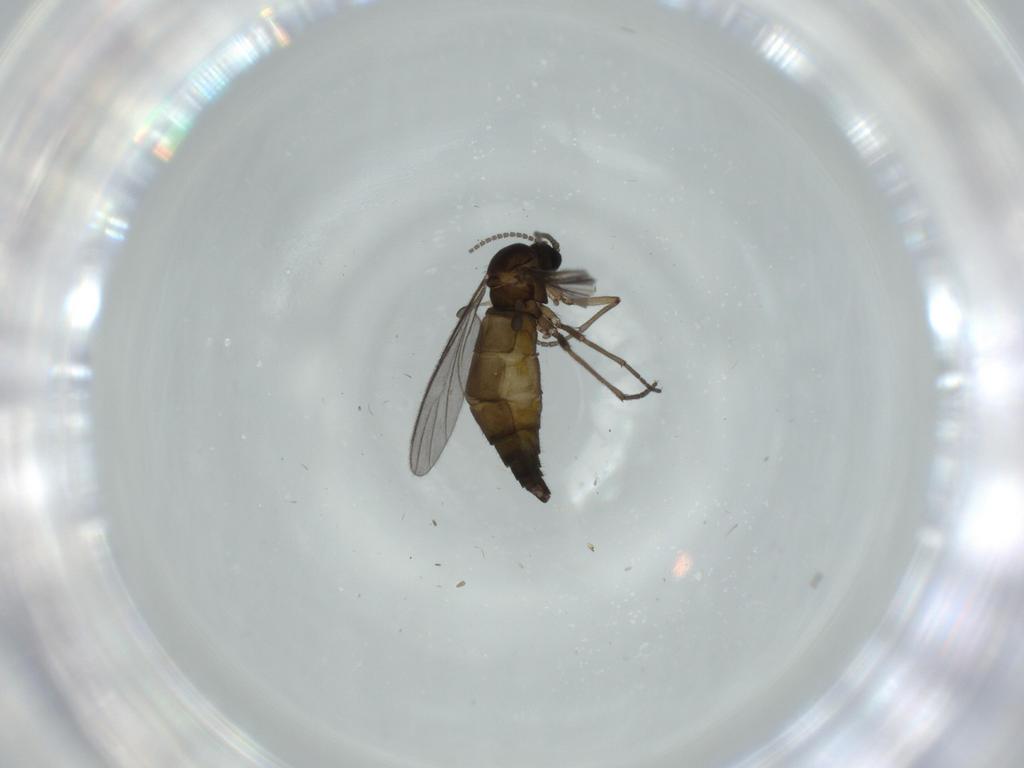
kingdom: Animalia
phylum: Arthropoda
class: Insecta
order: Diptera
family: Sciaridae
